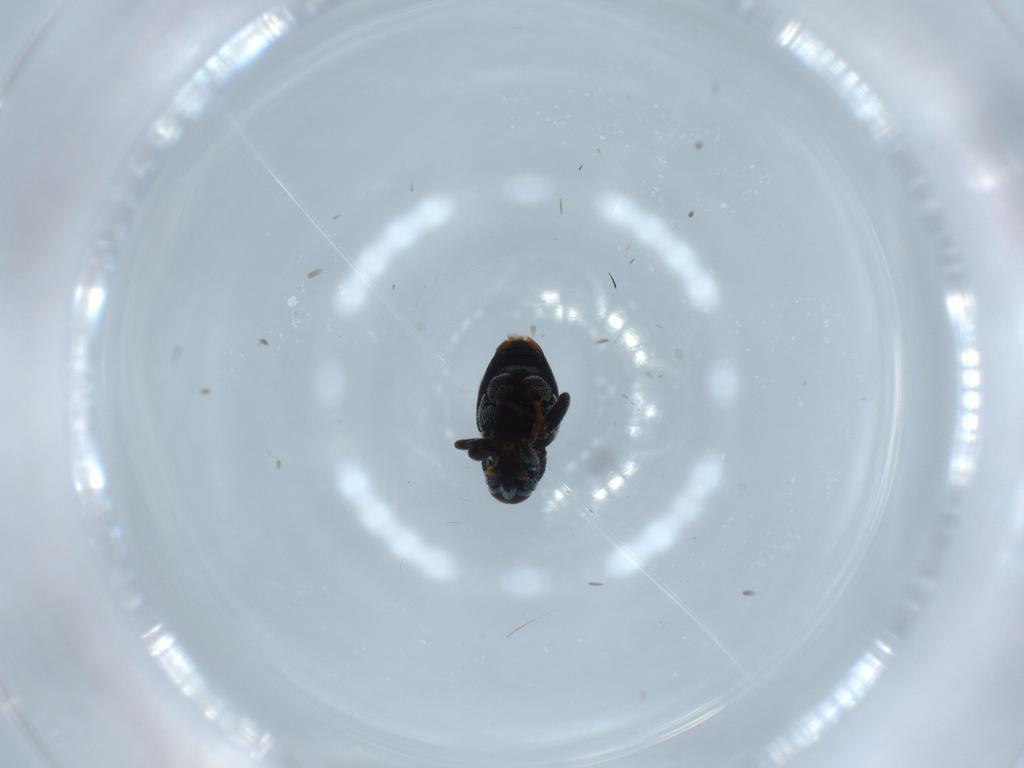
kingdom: Animalia
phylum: Arthropoda
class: Insecta
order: Coleoptera
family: Curculionidae
